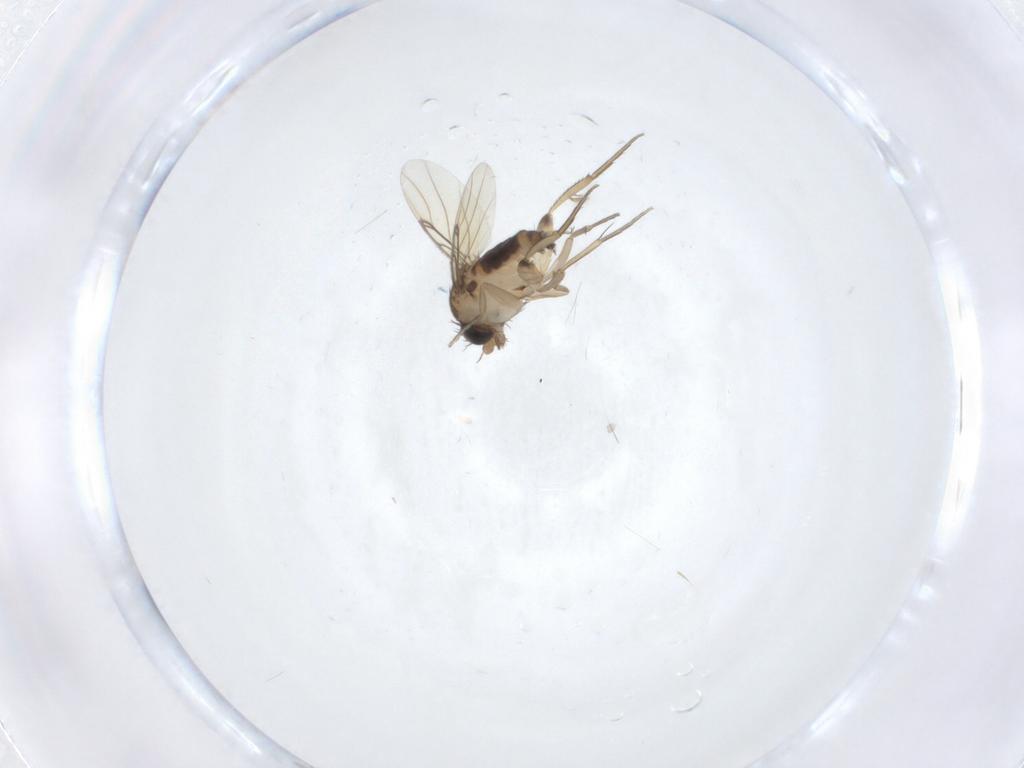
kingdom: Animalia
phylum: Arthropoda
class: Insecta
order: Diptera
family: Phoridae
